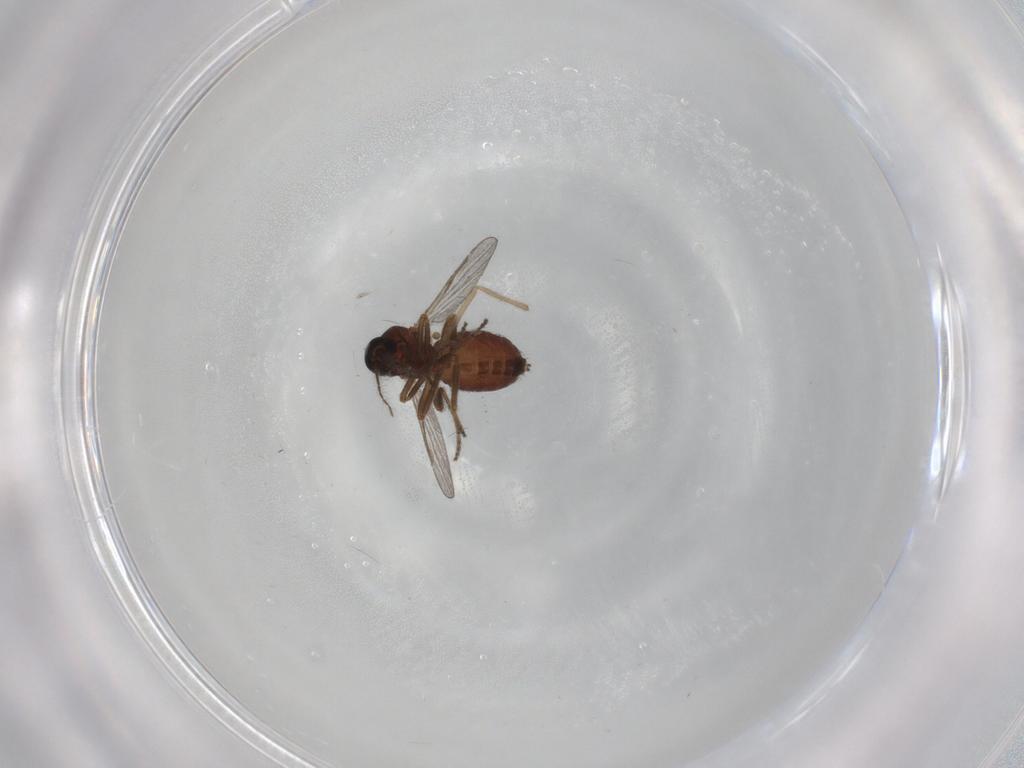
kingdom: Animalia
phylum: Arthropoda
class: Insecta
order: Diptera
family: Ceratopogonidae
